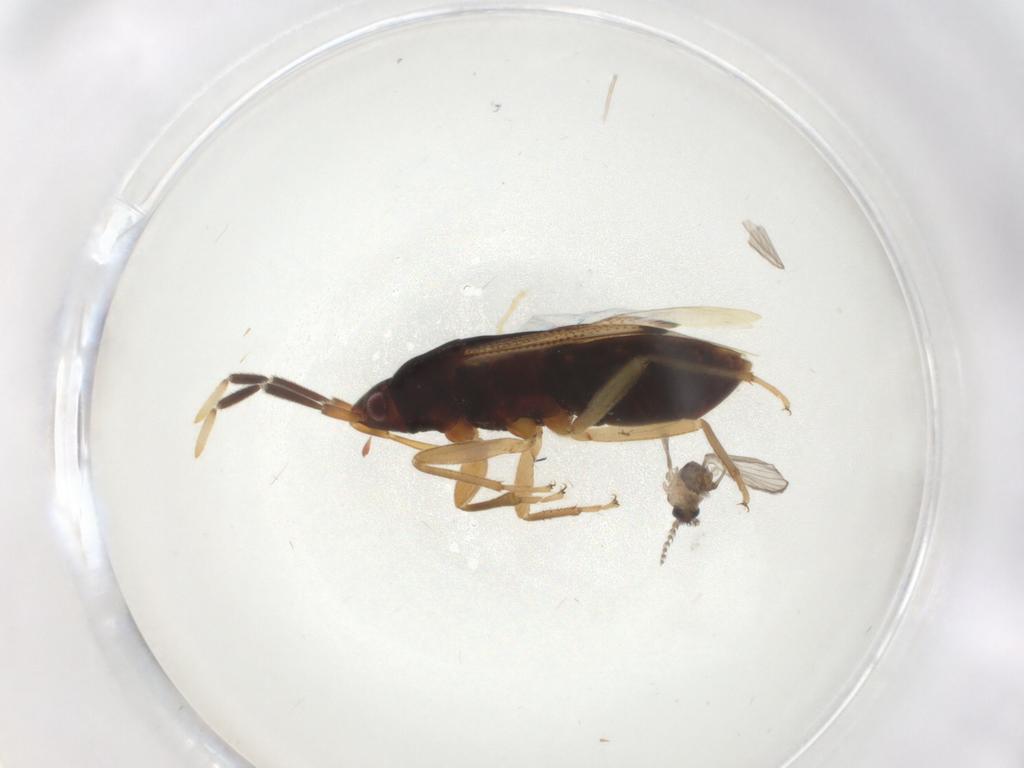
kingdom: Animalia
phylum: Arthropoda
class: Insecta
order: Diptera
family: Psychodidae
